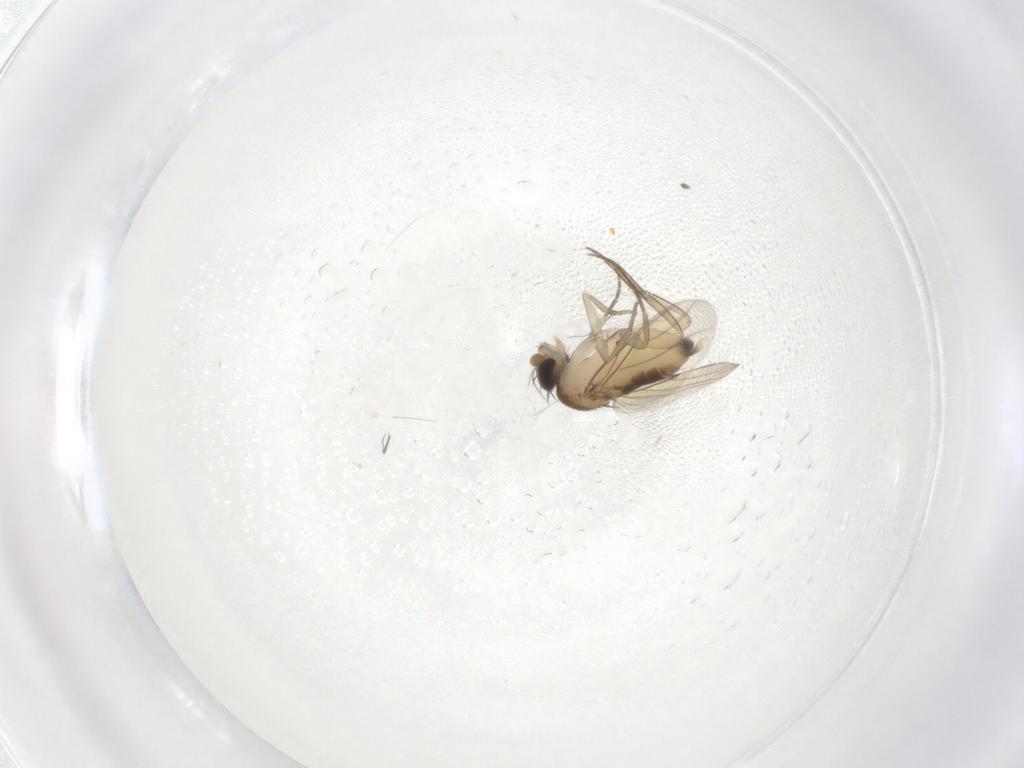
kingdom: Animalia
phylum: Arthropoda
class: Insecta
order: Diptera
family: Phoridae
